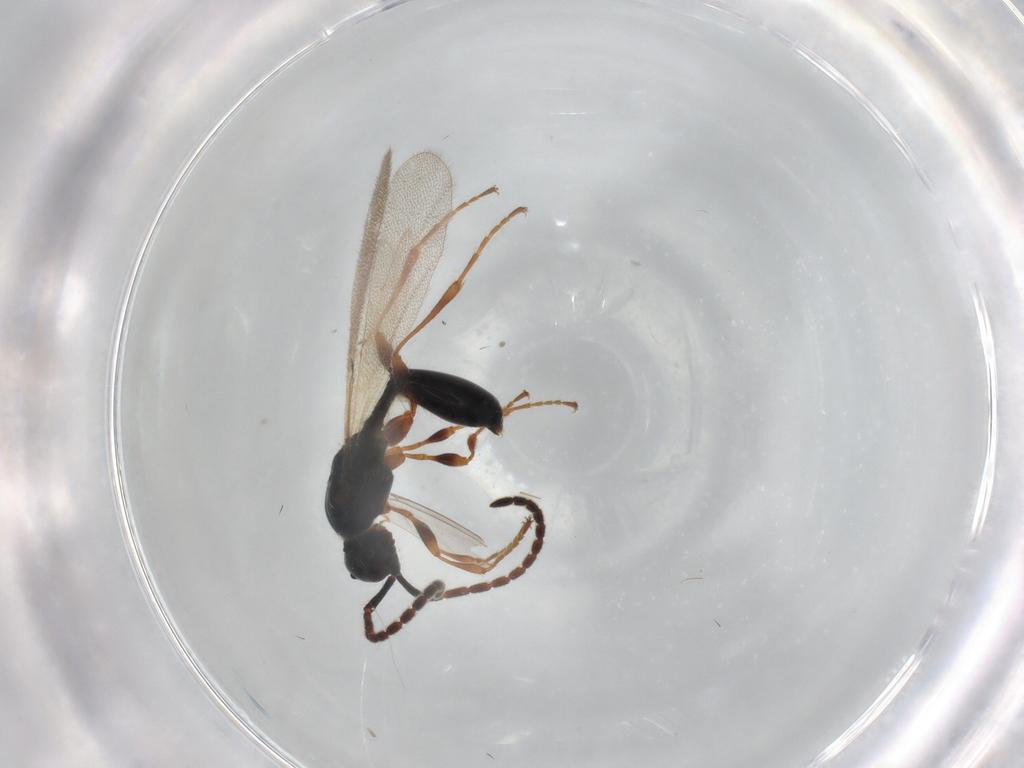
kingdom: Animalia
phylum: Arthropoda
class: Insecta
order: Hymenoptera
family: Diapriidae
